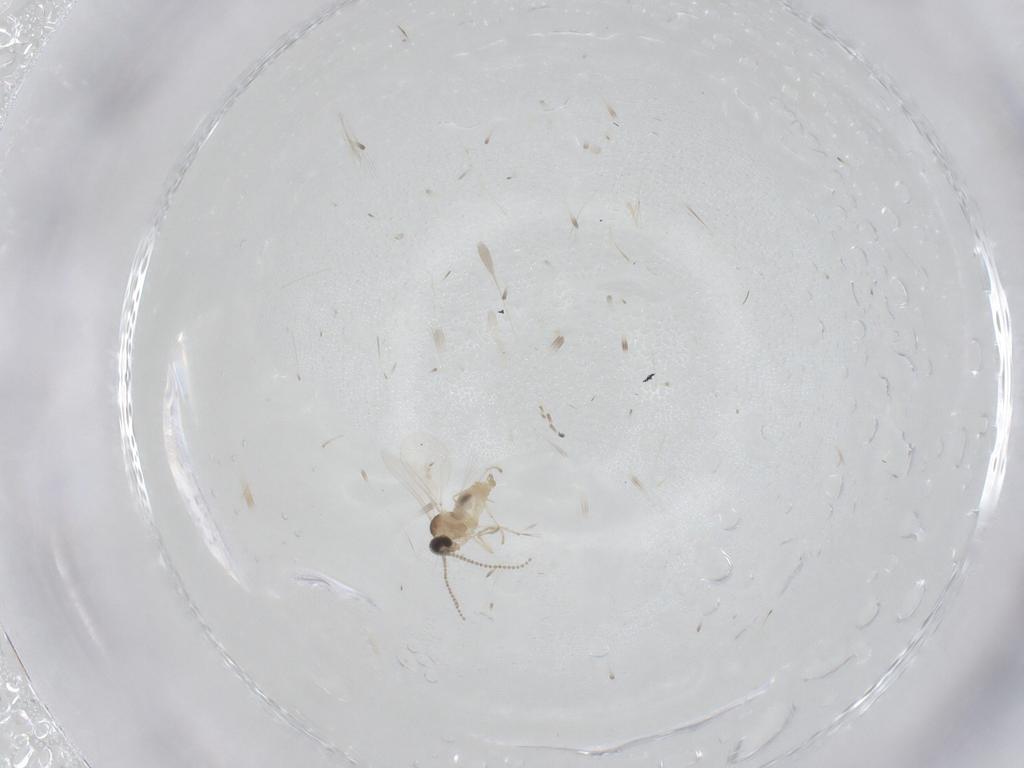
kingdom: Animalia
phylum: Arthropoda
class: Insecta
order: Diptera
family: Cecidomyiidae
